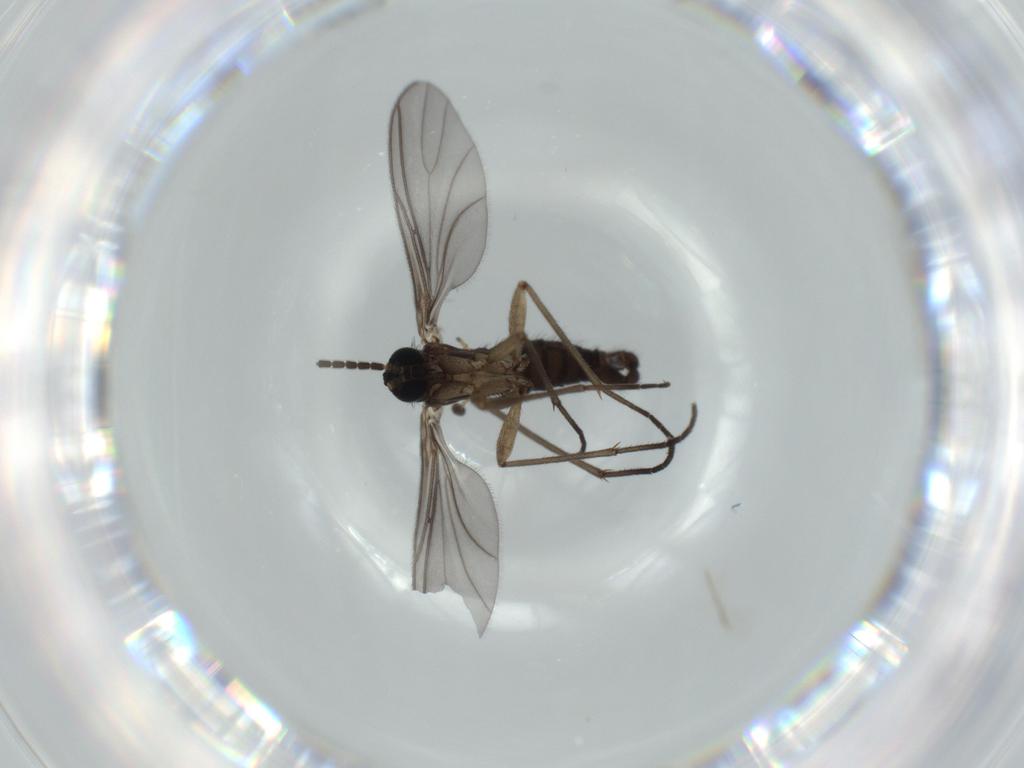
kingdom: Animalia
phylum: Arthropoda
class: Insecta
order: Diptera
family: Sciaridae
